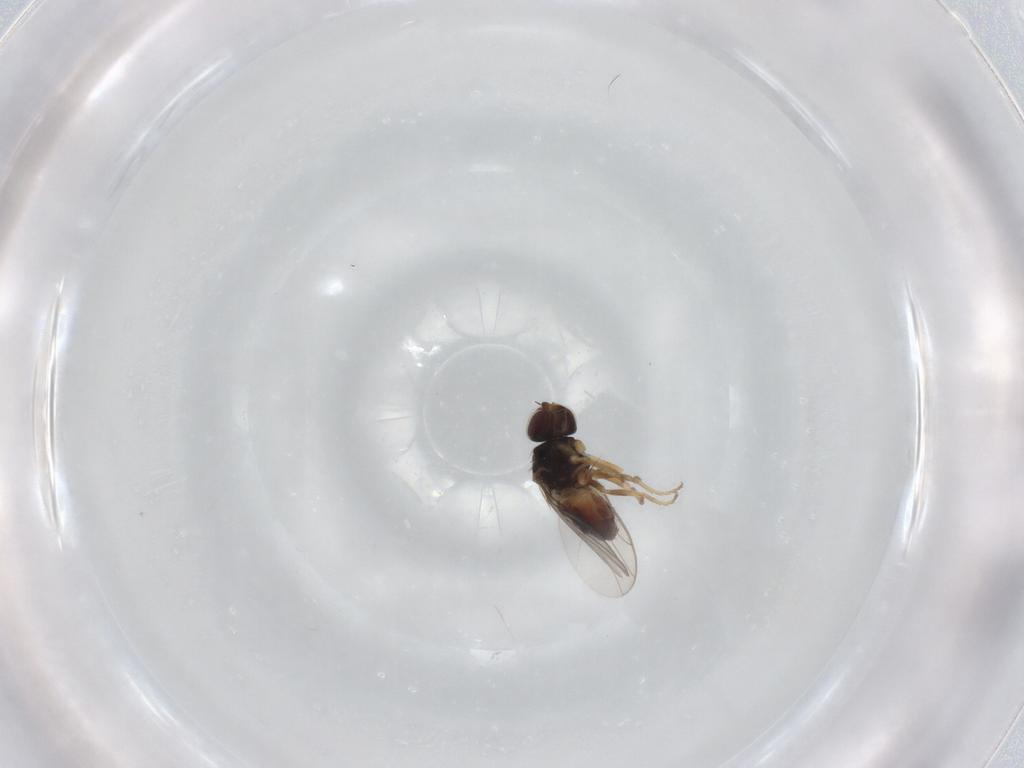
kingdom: Animalia
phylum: Arthropoda
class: Insecta
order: Diptera
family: Chloropidae
